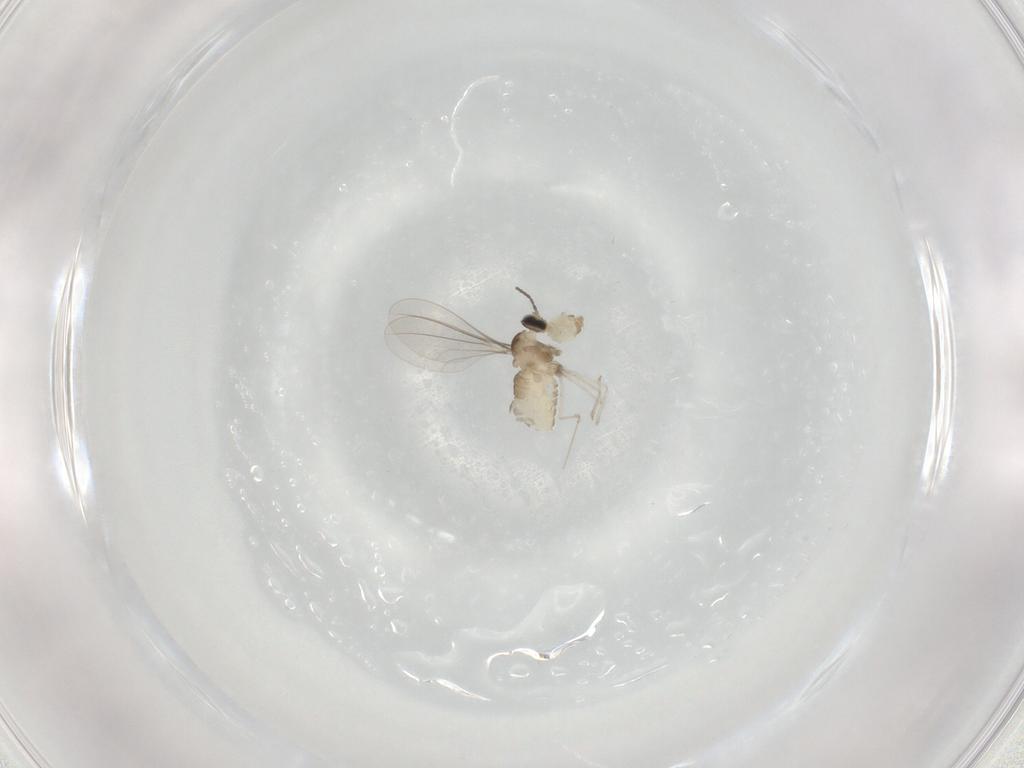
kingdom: Animalia
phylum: Arthropoda
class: Insecta
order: Diptera
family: Cecidomyiidae
